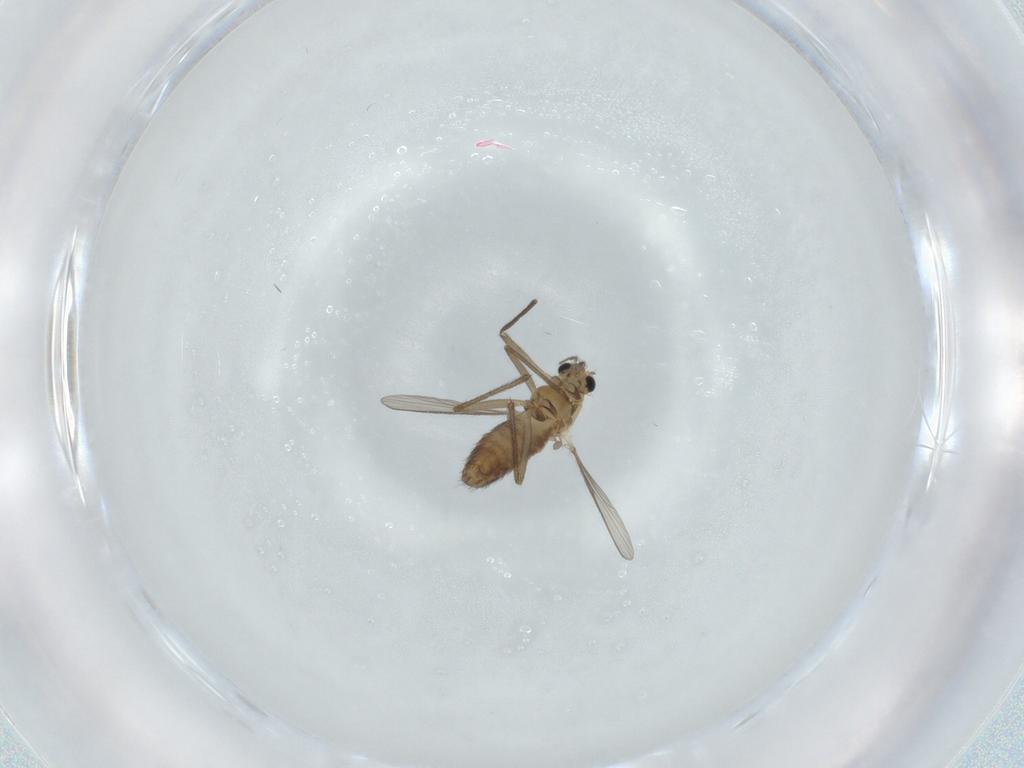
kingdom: Animalia
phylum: Arthropoda
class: Insecta
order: Diptera
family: Chironomidae
